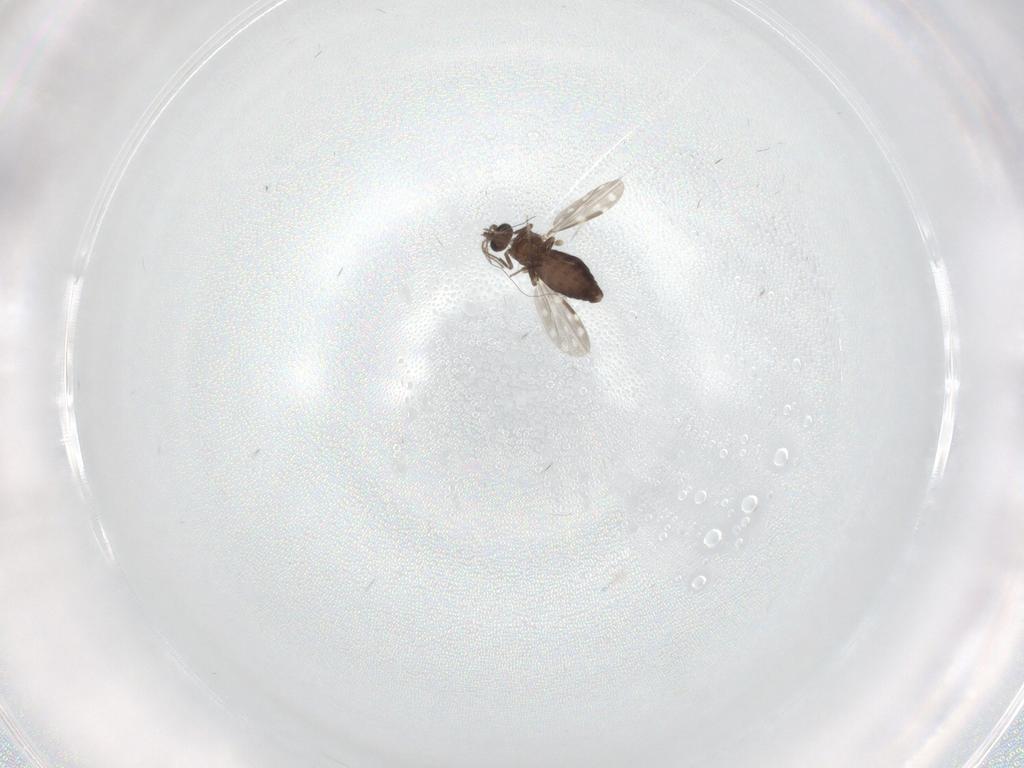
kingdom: Animalia
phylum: Arthropoda
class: Insecta
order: Diptera
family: Ceratopogonidae
